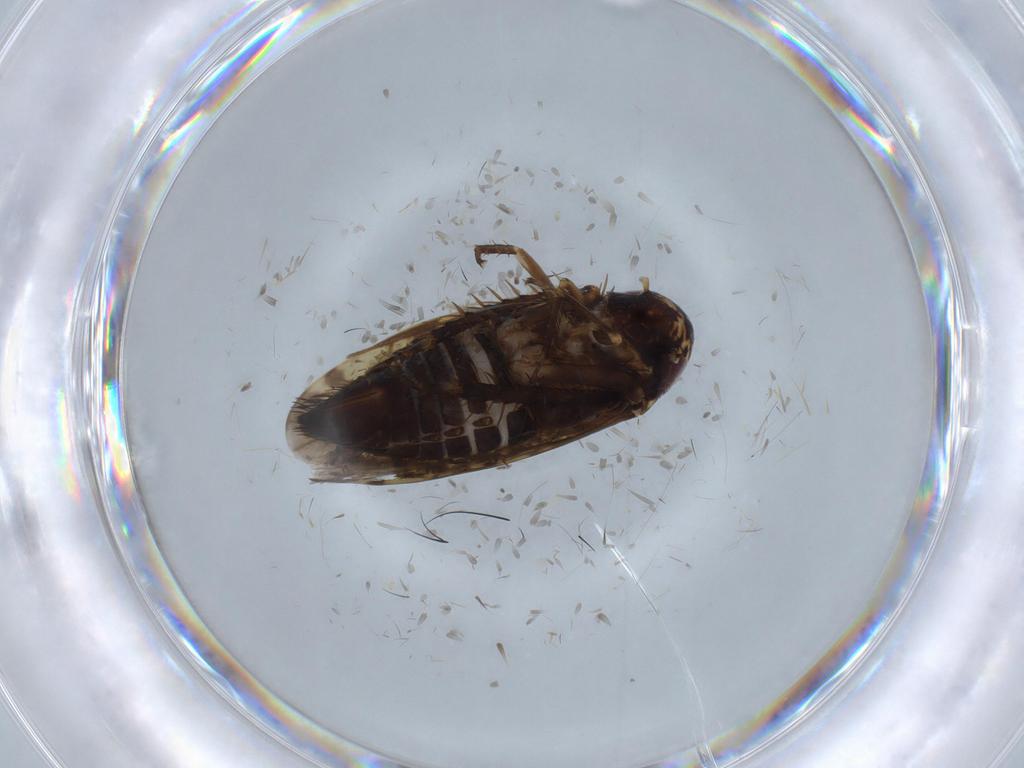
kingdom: Animalia
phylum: Arthropoda
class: Insecta
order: Hemiptera
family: Cicadellidae
